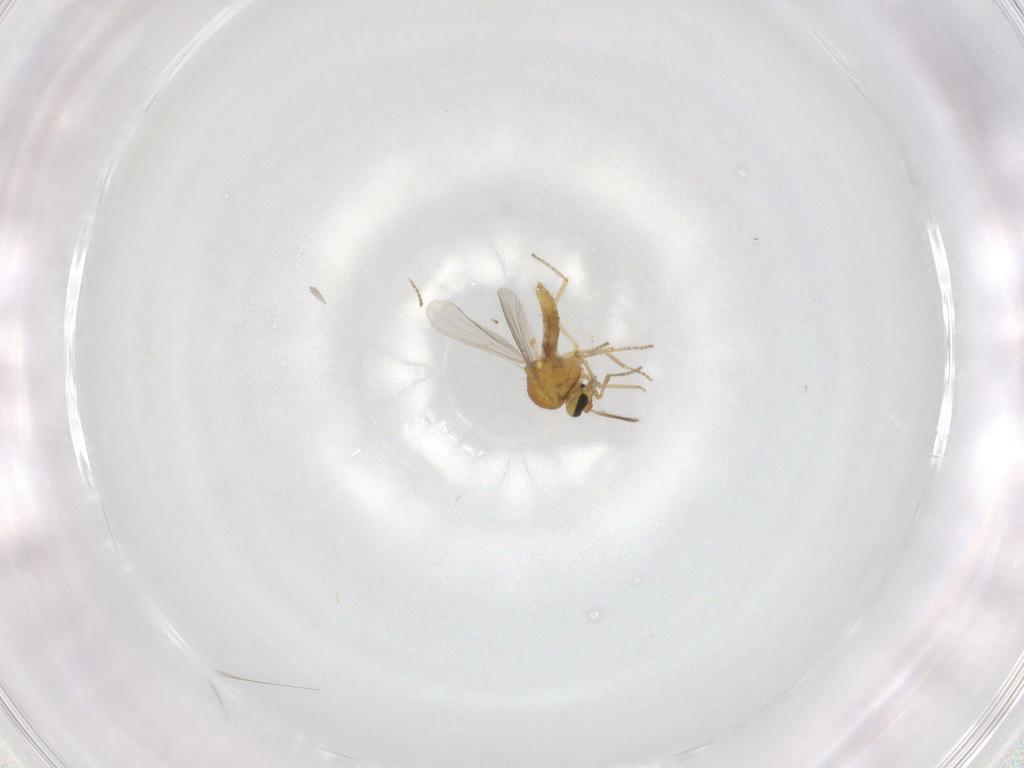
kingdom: Animalia
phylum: Arthropoda
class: Insecta
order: Diptera
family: Ceratopogonidae
